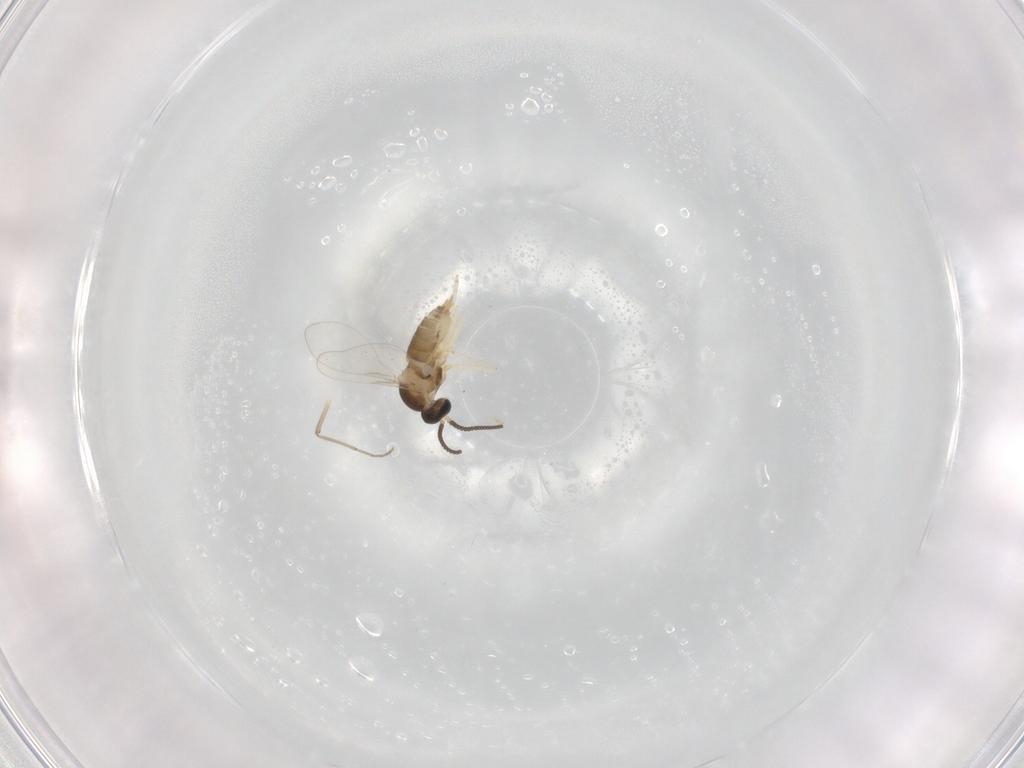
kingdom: Animalia
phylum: Arthropoda
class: Insecta
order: Diptera
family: Cecidomyiidae
